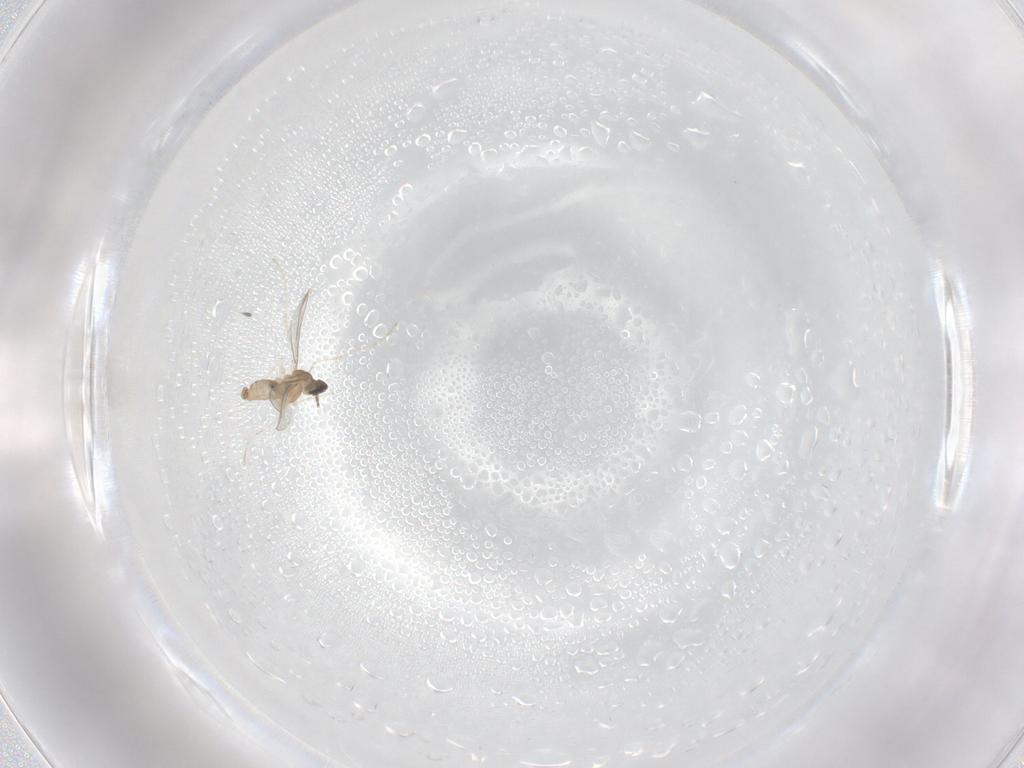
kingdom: Animalia
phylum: Arthropoda
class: Insecta
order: Diptera
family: Cecidomyiidae
